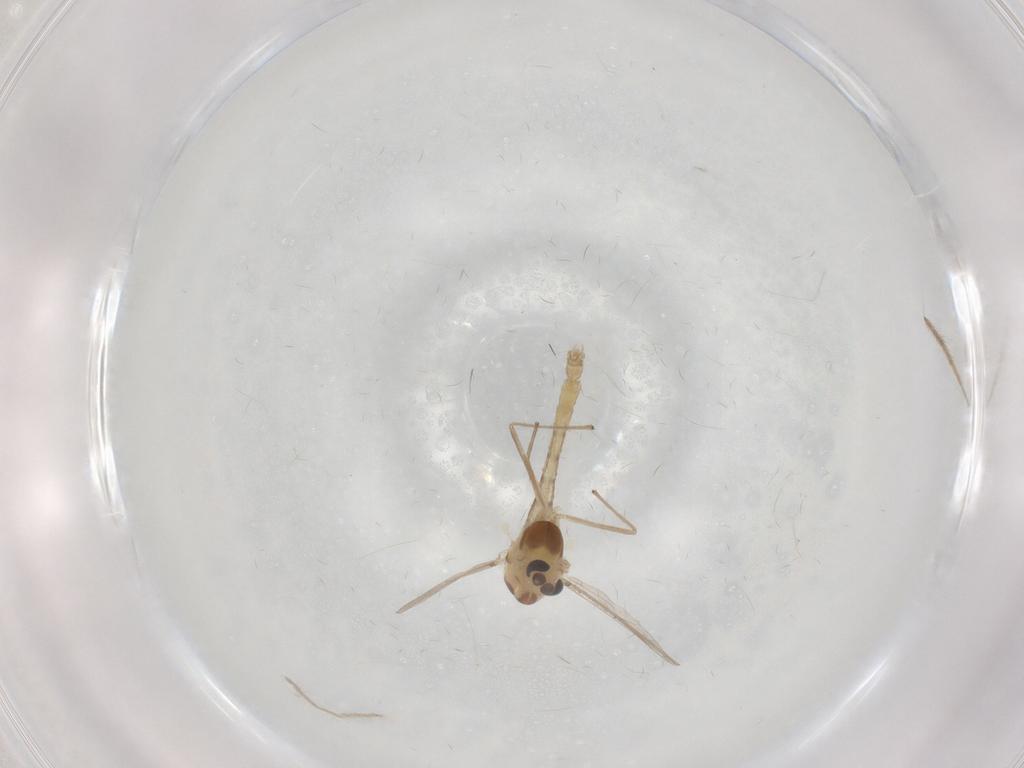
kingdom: Animalia
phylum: Arthropoda
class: Insecta
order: Diptera
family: Chironomidae
